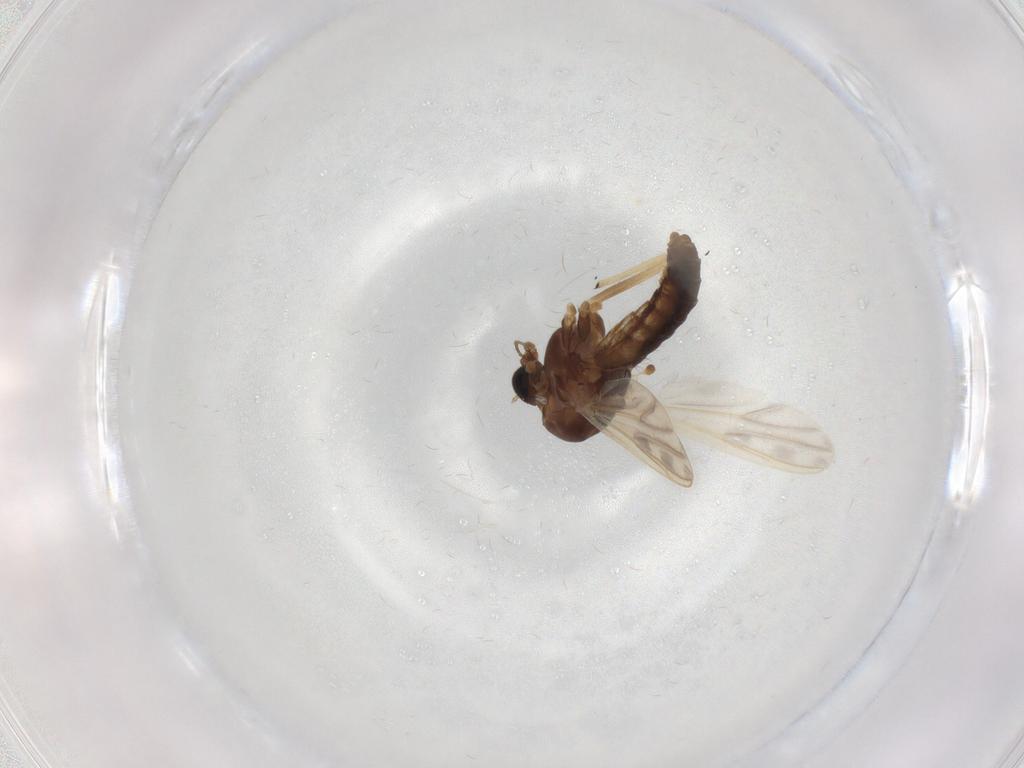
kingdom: Animalia
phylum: Arthropoda
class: Insecta
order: Diptera
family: Chironomidae
